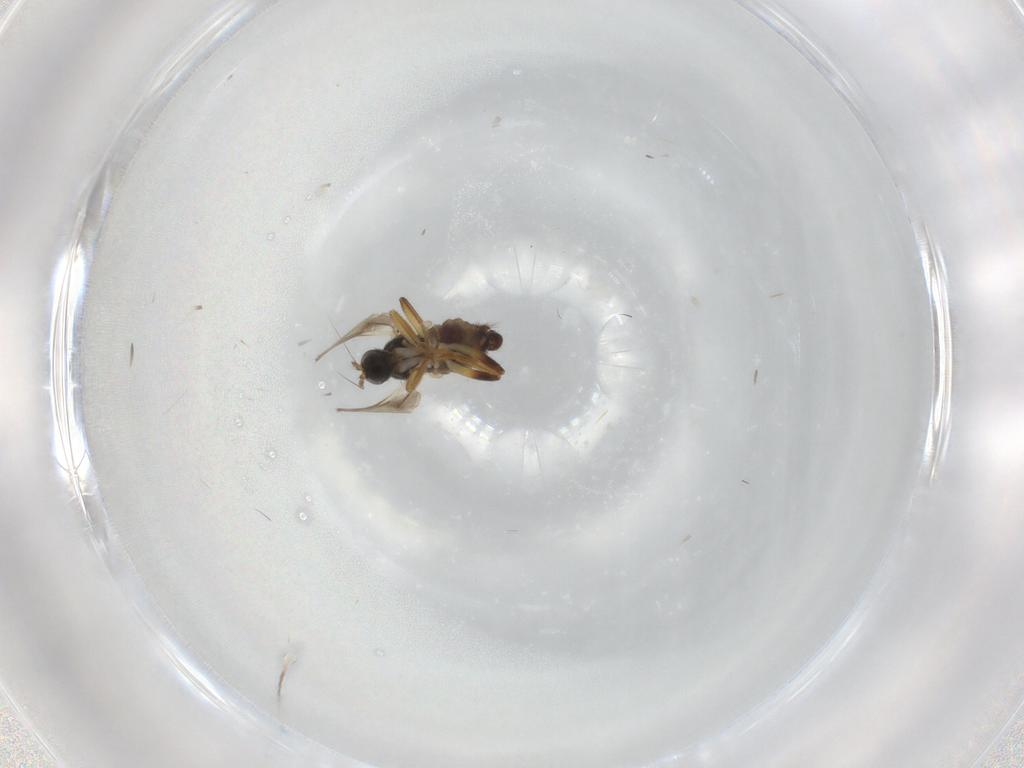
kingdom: Animalia
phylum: Arthropoda
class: Insecta
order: Diptera
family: Hybotidae
